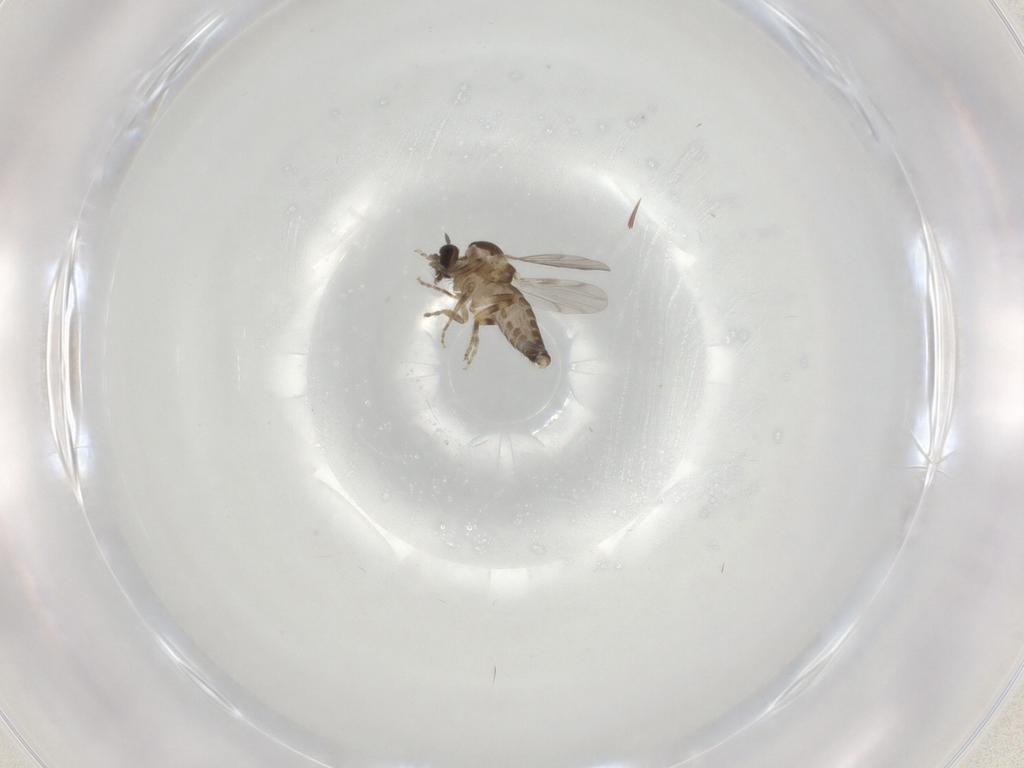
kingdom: Animalia
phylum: Arthropoda
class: Insecta
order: Diptera
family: Ceratopogonidae
